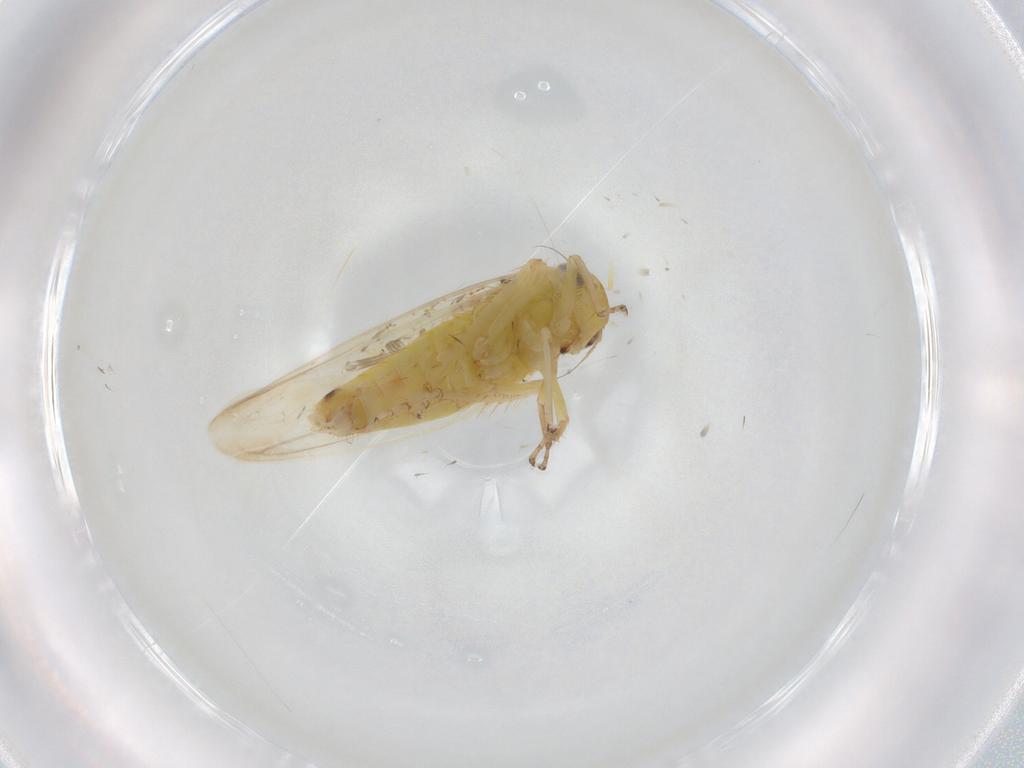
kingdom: Animalia
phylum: Arthropoda
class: Insecta
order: Hemiptera
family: Cicadellidae
